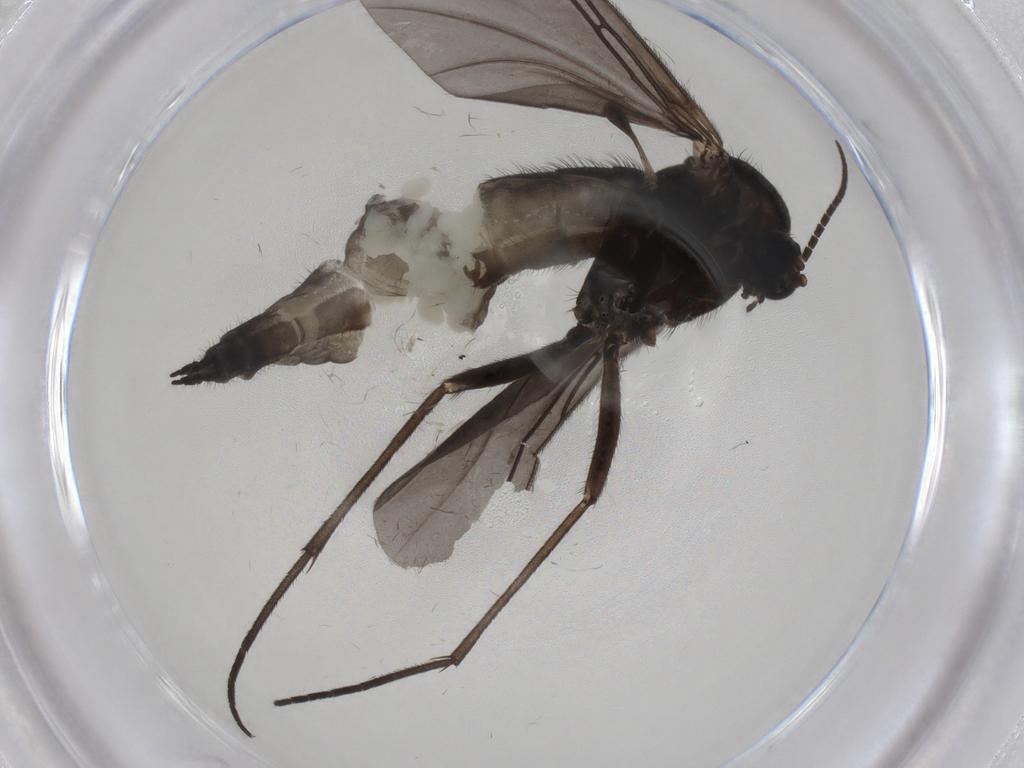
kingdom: Animalia
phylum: Arthropoda
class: Insecta
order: Diptera
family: Sciaridae
